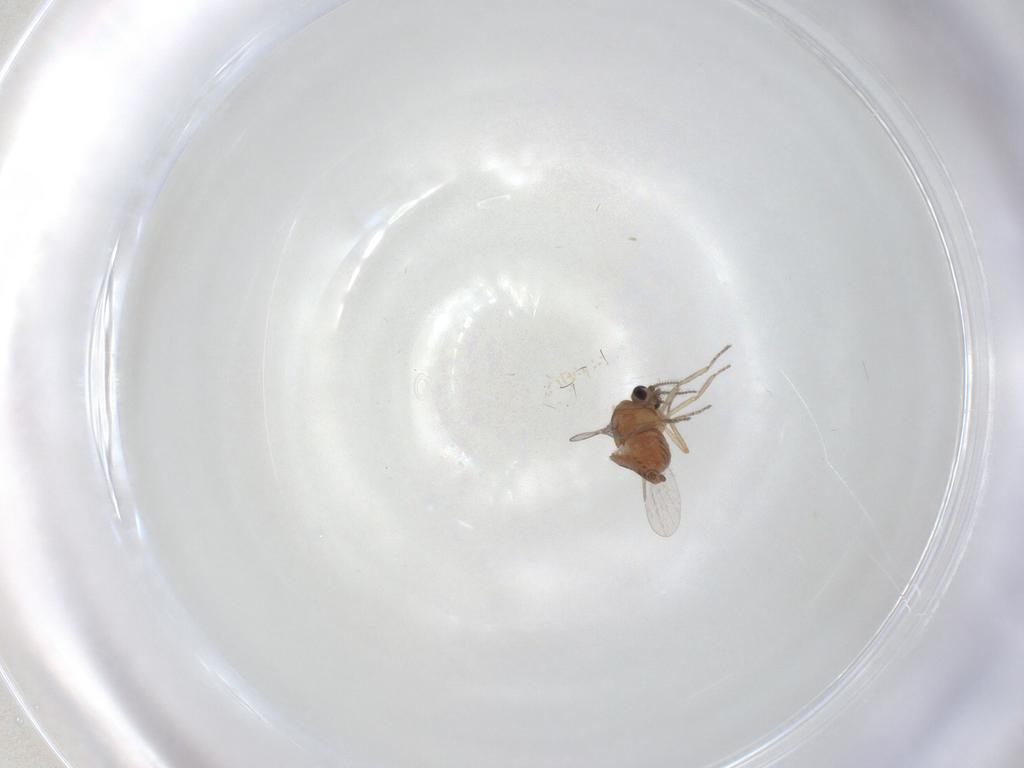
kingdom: Animalia
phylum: Arthropoda
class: Insecta
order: Diptera
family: Ceratopogonidae
